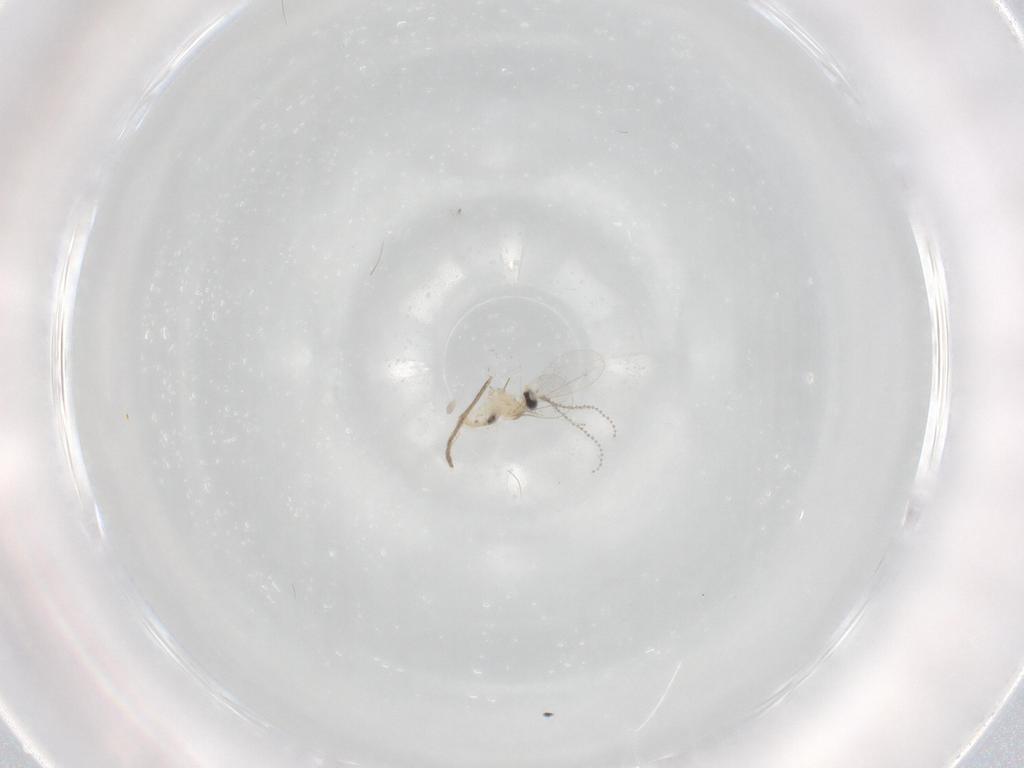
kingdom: Animalia
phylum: Arthropoda
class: Insecta
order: Diptera
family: Chironomidae
